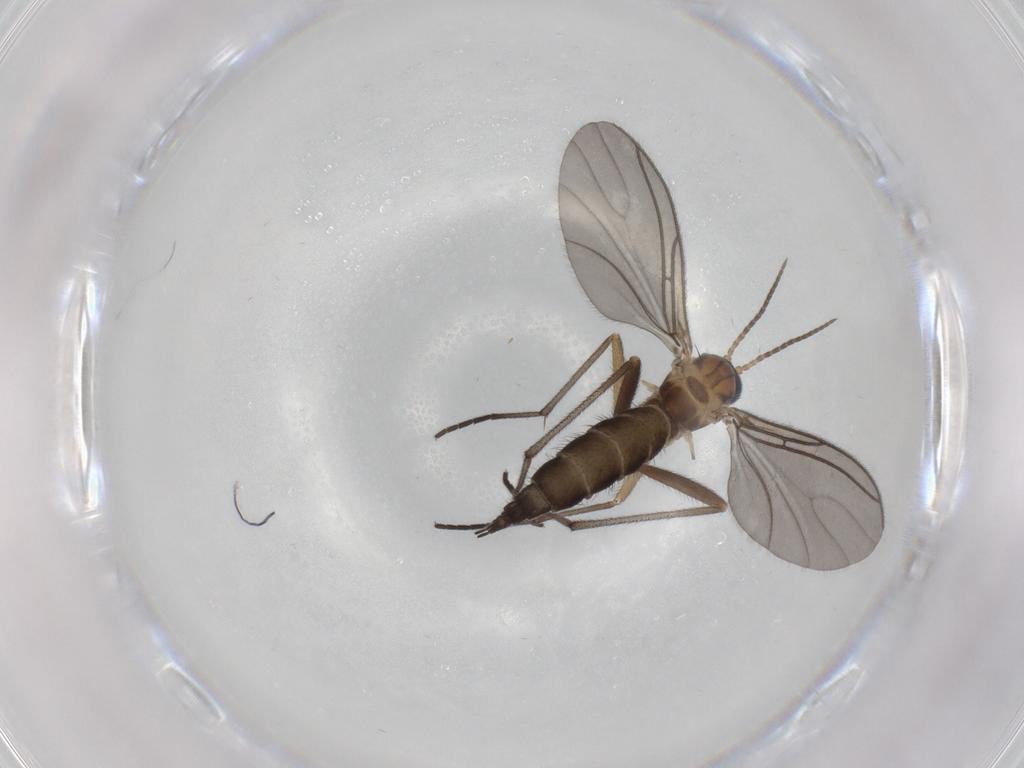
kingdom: Animalia
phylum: Arthropoda
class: Insecta
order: Diptera
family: Sciaridae
